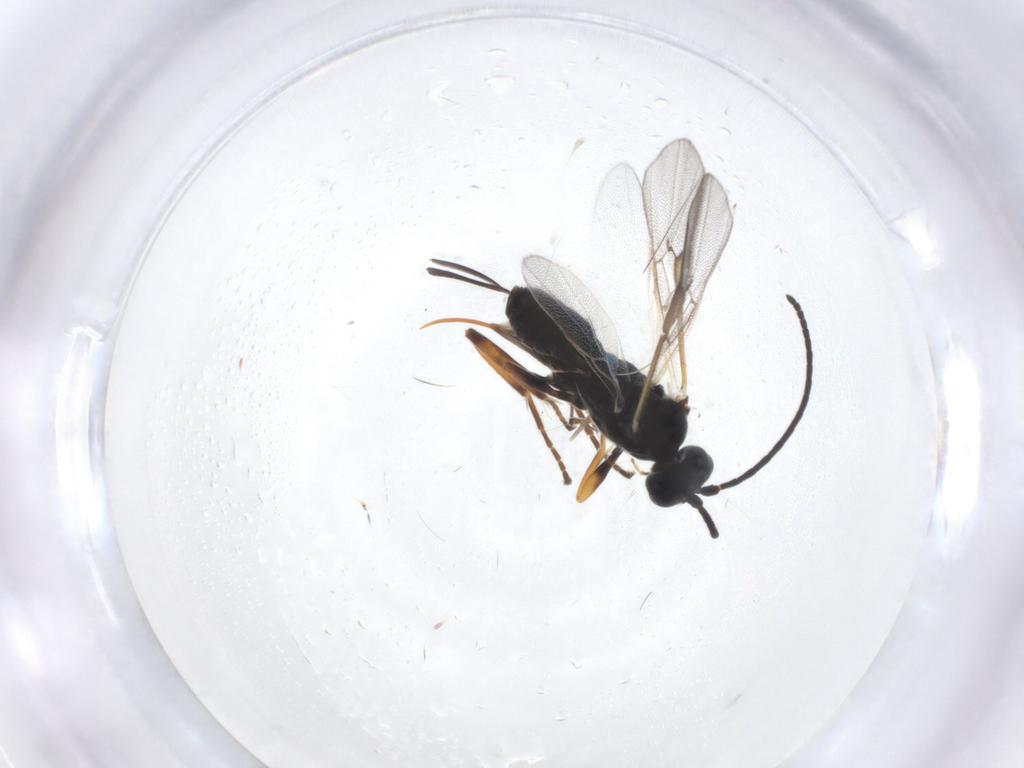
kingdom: Animalia
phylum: Arthropoda
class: Insecta
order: Hymenoptera
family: Braconidae
